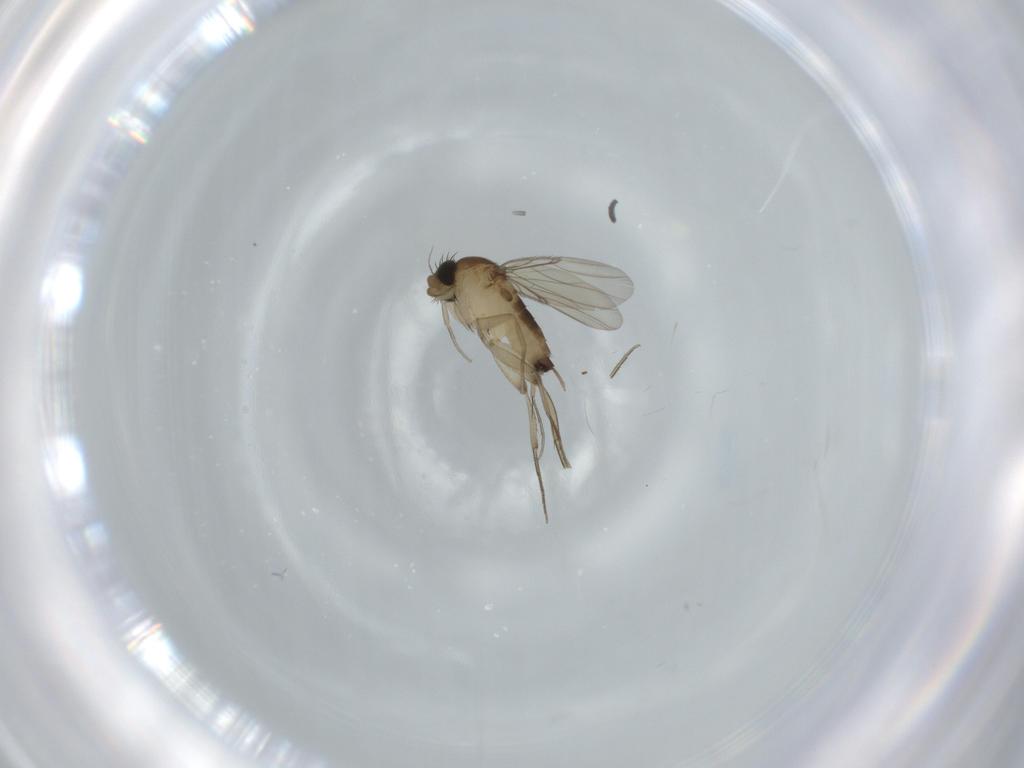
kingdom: Animalia
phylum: Arthropoda
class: Insecta
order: Diptera
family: Phoridae
